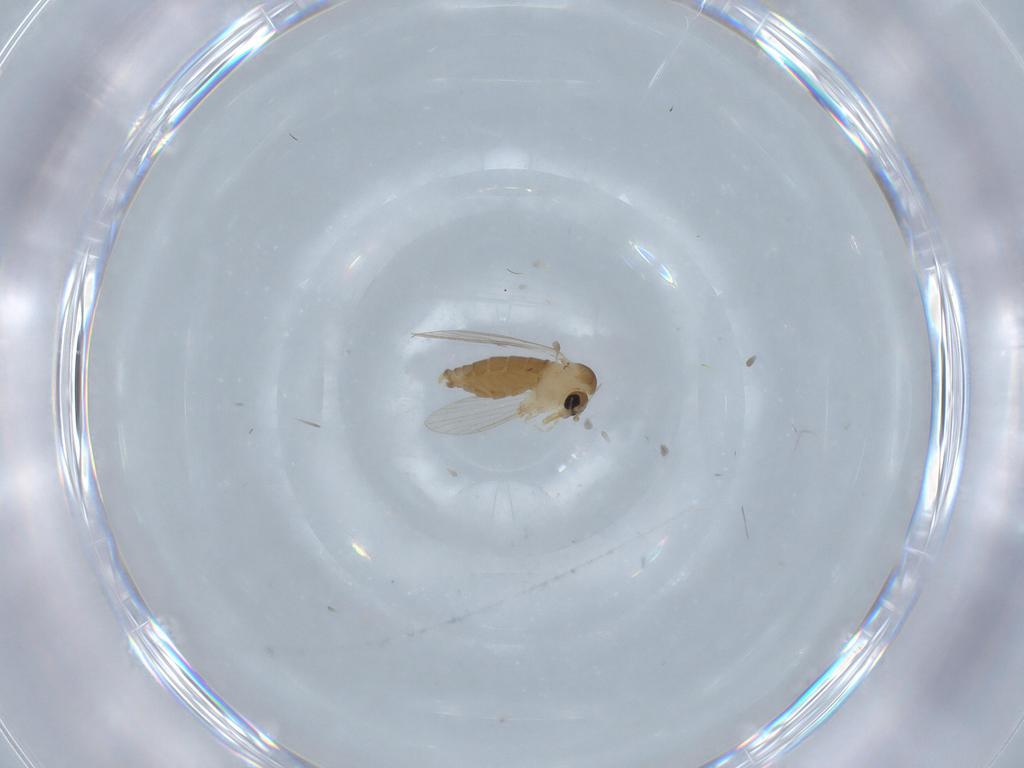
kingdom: Animalia
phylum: Arthropoda
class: Insecta
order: Diptera
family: Psychodidae
